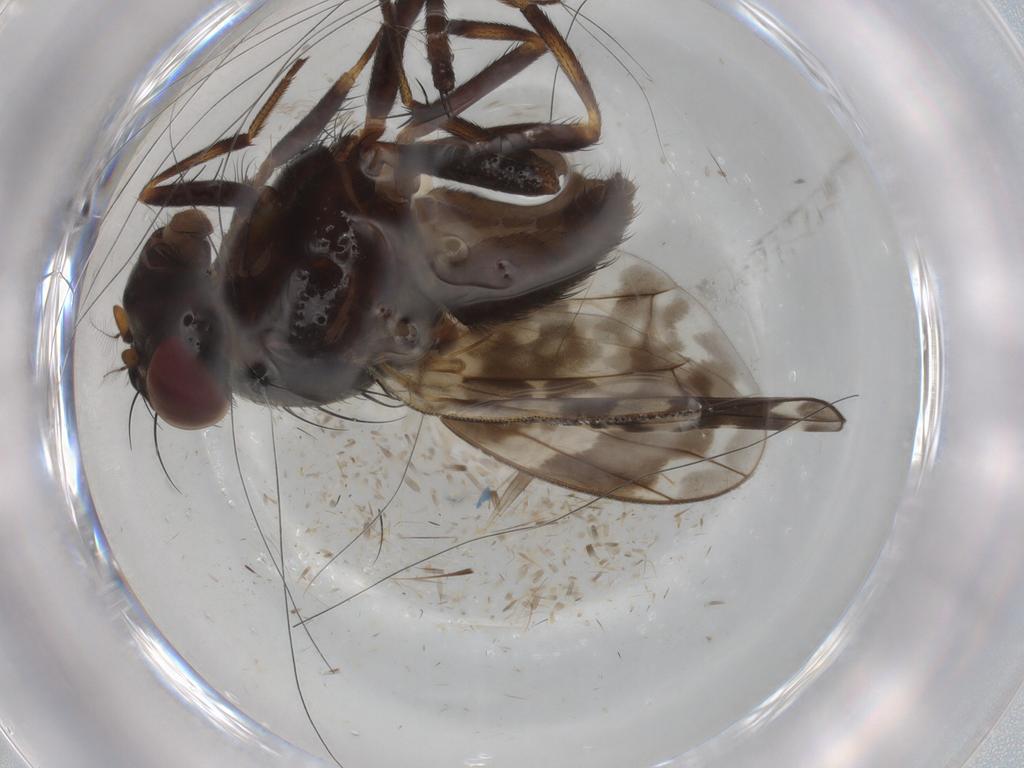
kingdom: Animalia
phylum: Arthropoda
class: Insecta
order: Diptera
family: Lauxaniidae
